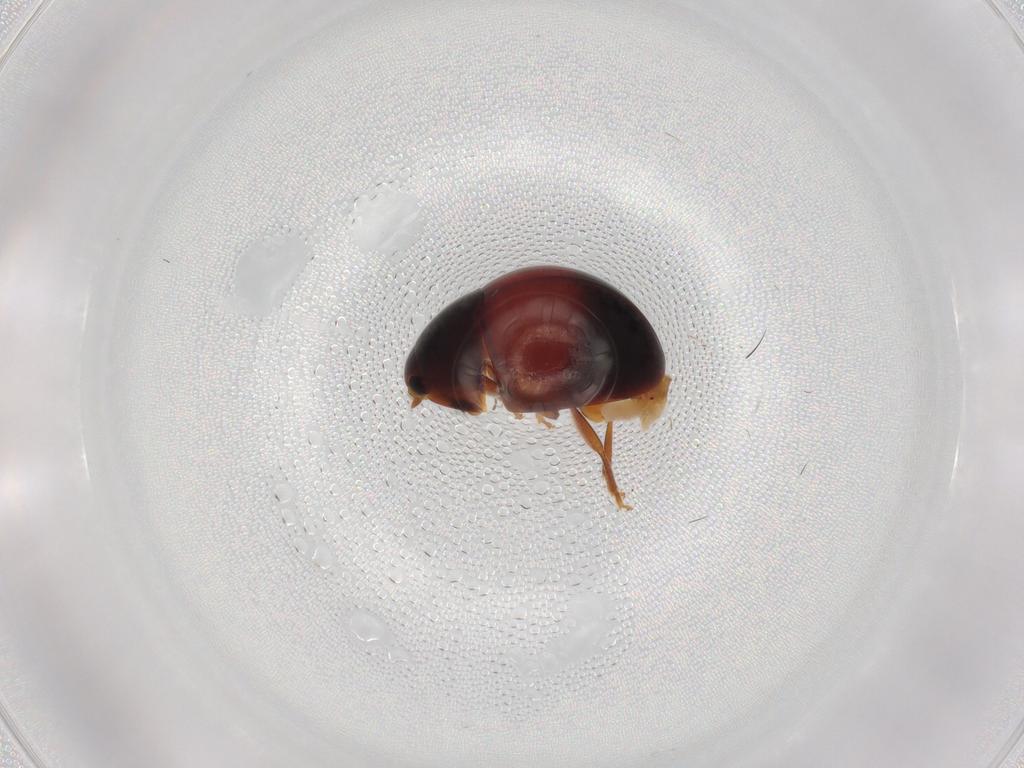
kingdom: Animalia
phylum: Arthropoda
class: Insecta
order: Coleoptera
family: Phalacridae
